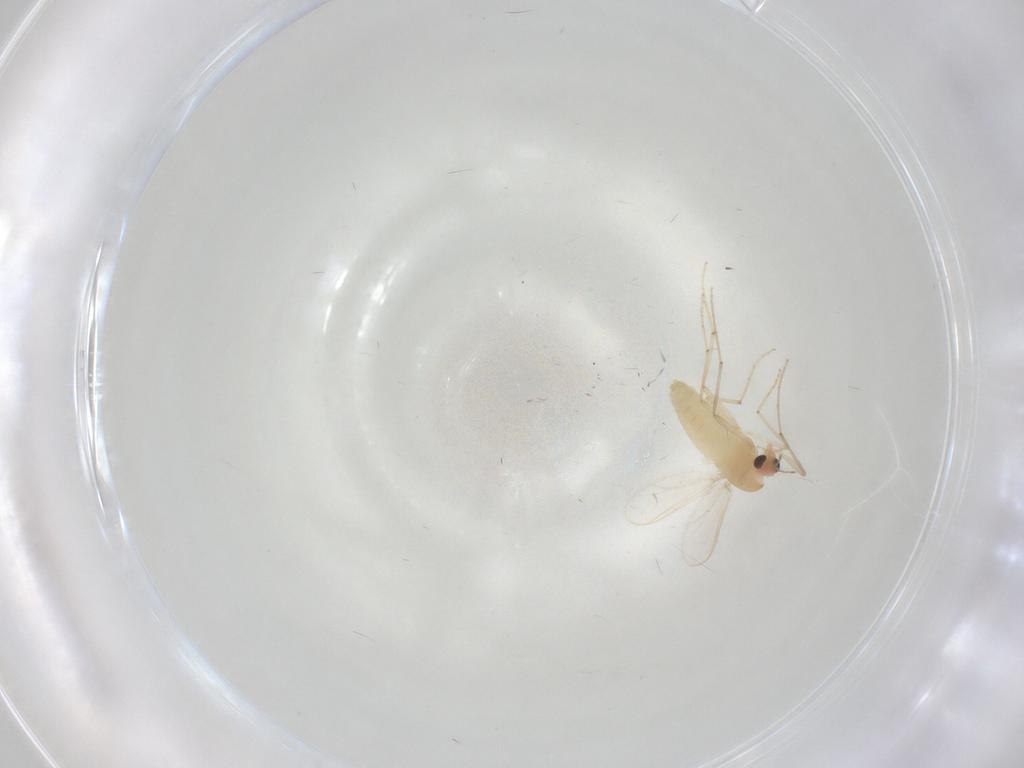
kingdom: Animalia
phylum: Arthropoda
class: Insecta
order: Diptera
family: Chironomidae
